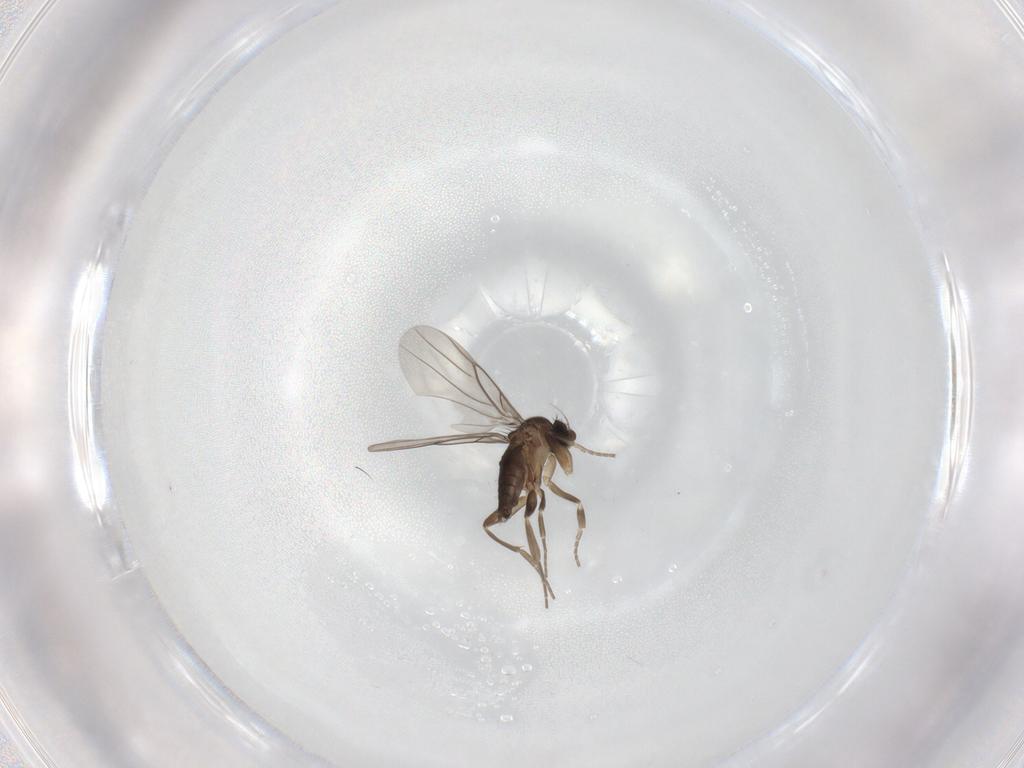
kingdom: Animalia
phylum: Arthropoda
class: Insecta
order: Diptera
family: Phoridae
